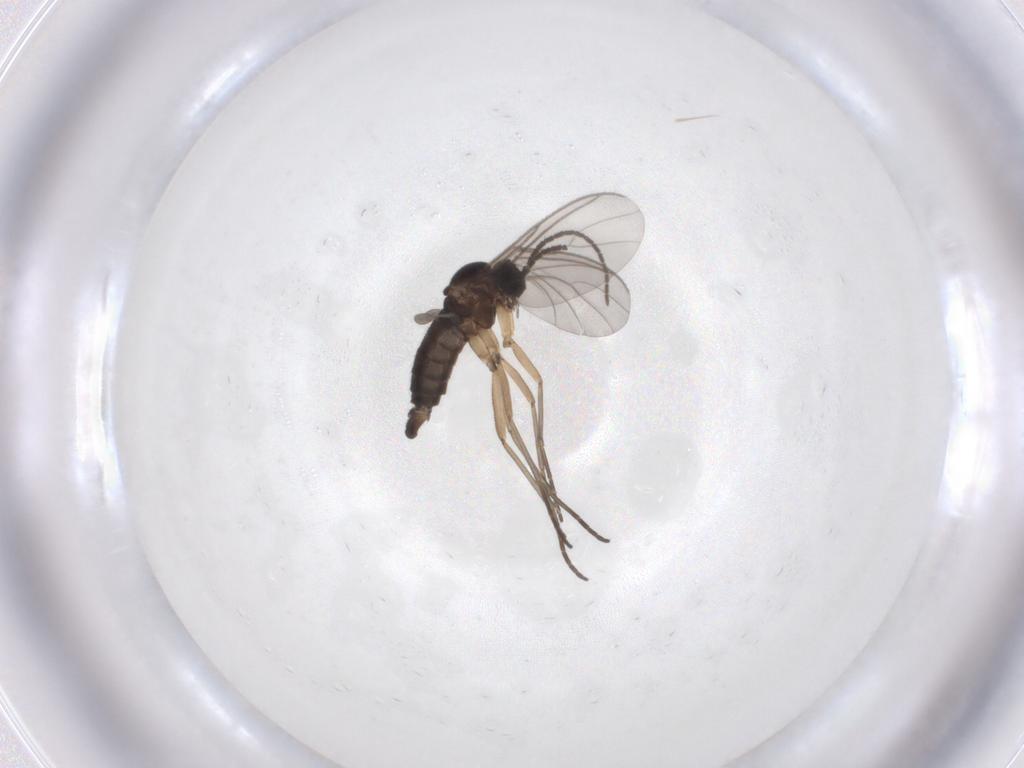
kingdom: Animalia
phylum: Arthropoda
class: Insecta
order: Diptera
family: Sciaridae
